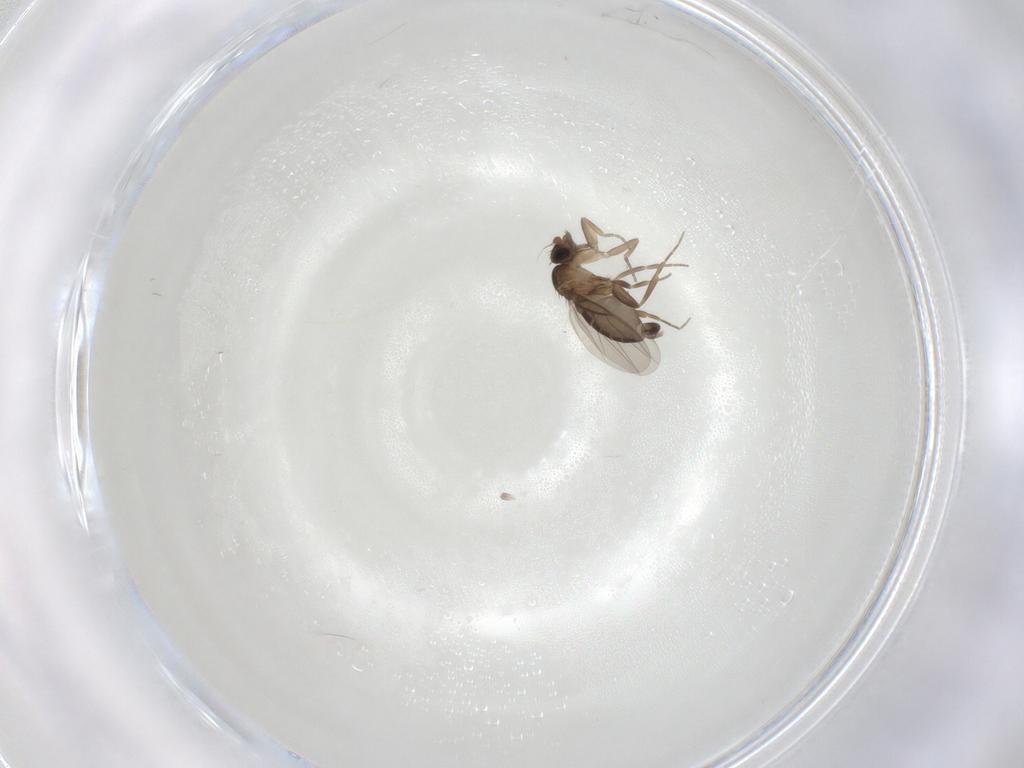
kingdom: Animalia
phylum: Arthropoda
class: Insecta
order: Diptera
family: Phoridae
